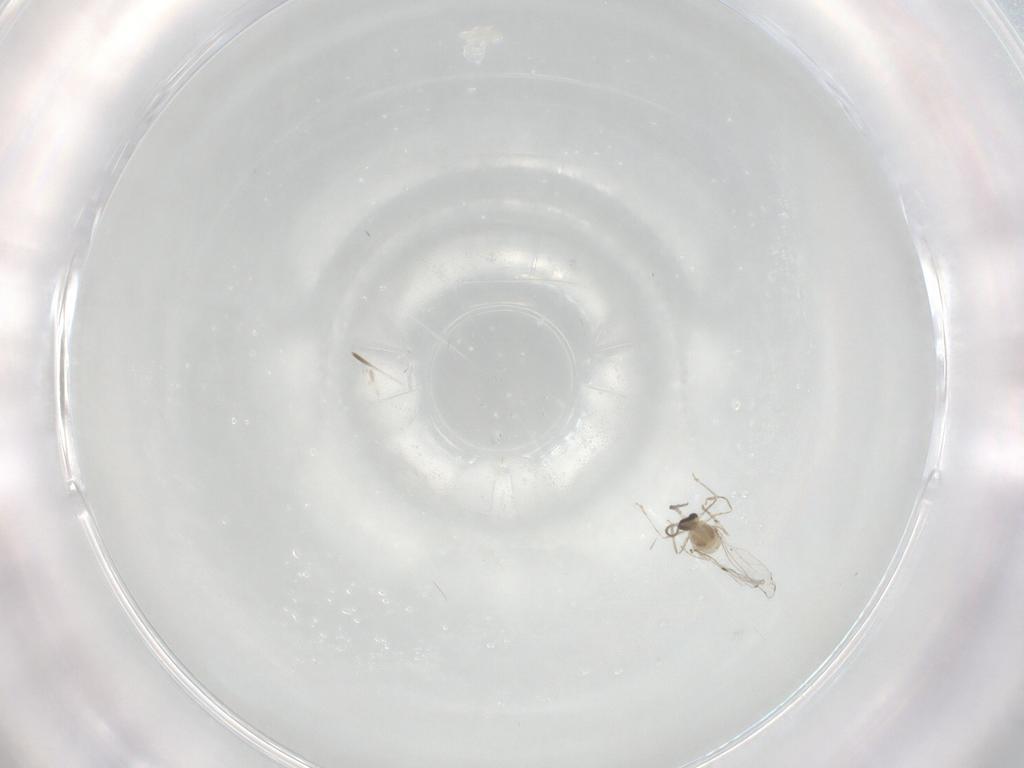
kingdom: Animalia
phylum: Arthropoda
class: Insecta
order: Diptera
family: Cecidomyiidae
